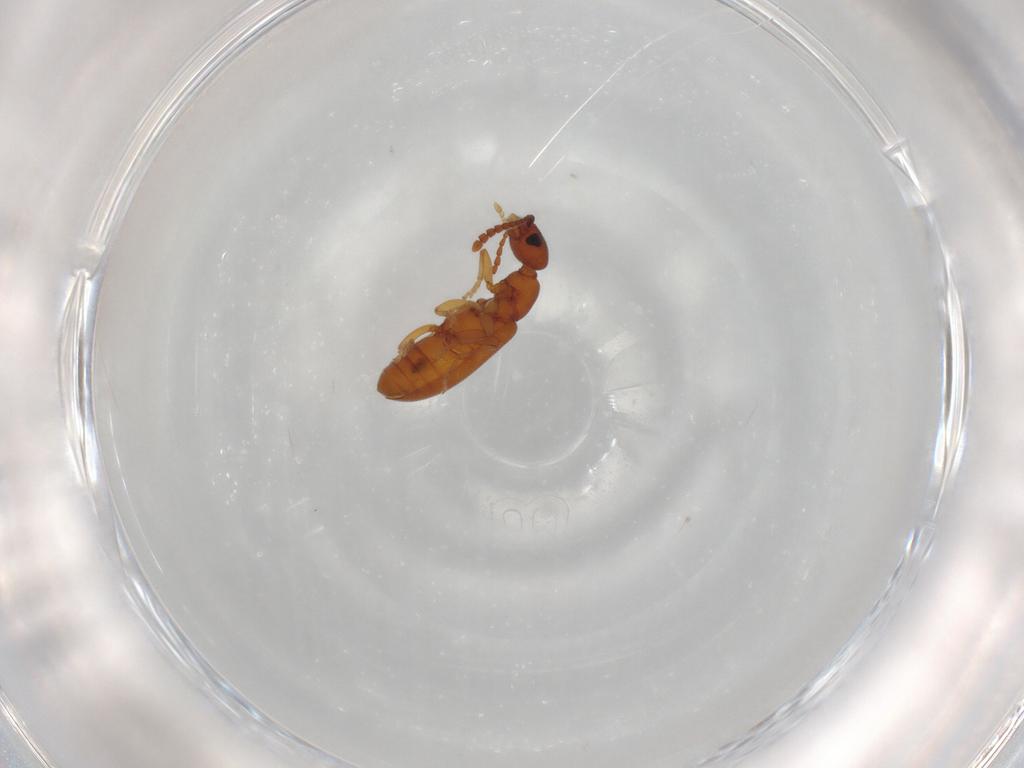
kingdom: Animalia
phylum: Arthropoda
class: Insecta
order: Coleoptera
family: Anthicidae
